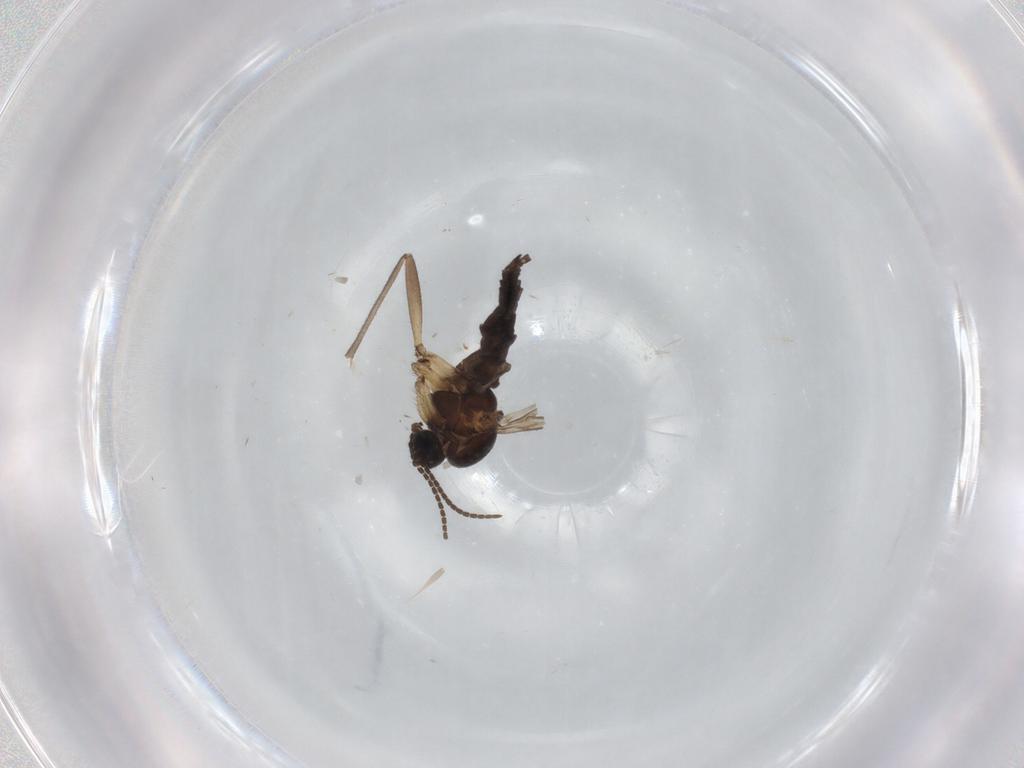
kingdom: Animalia
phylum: Arthropoda
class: Insecta
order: Diptera
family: Sciaridae
